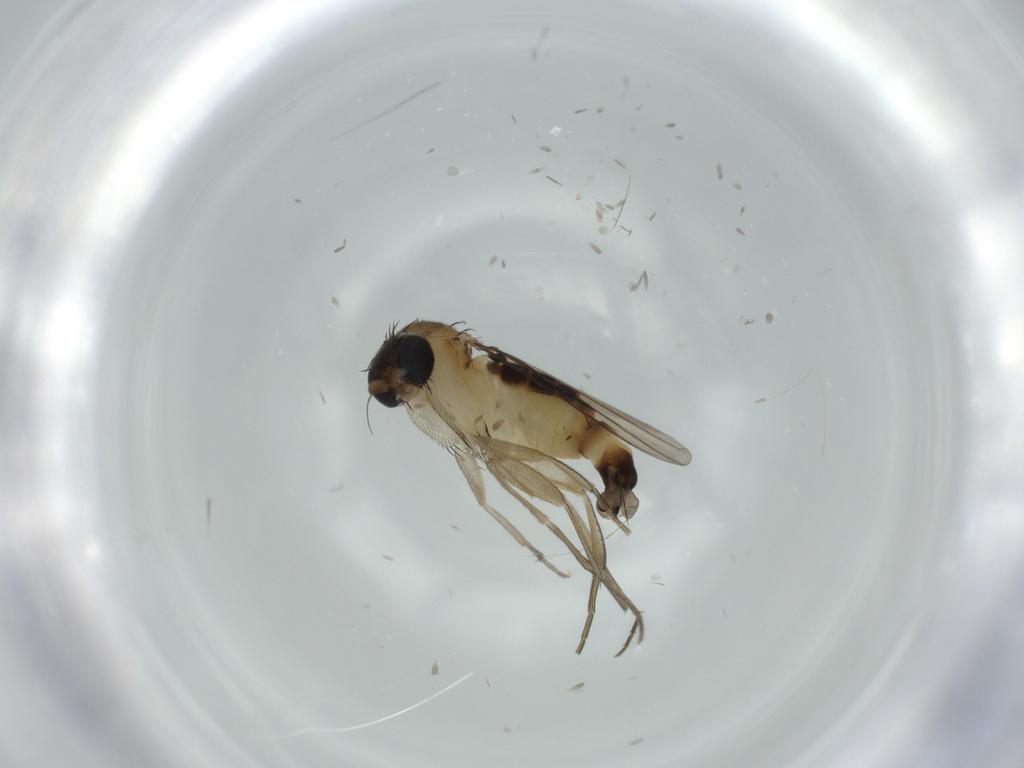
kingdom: Animalia
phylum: Arthropoda
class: Insecta
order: Diptera
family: Phoridae
